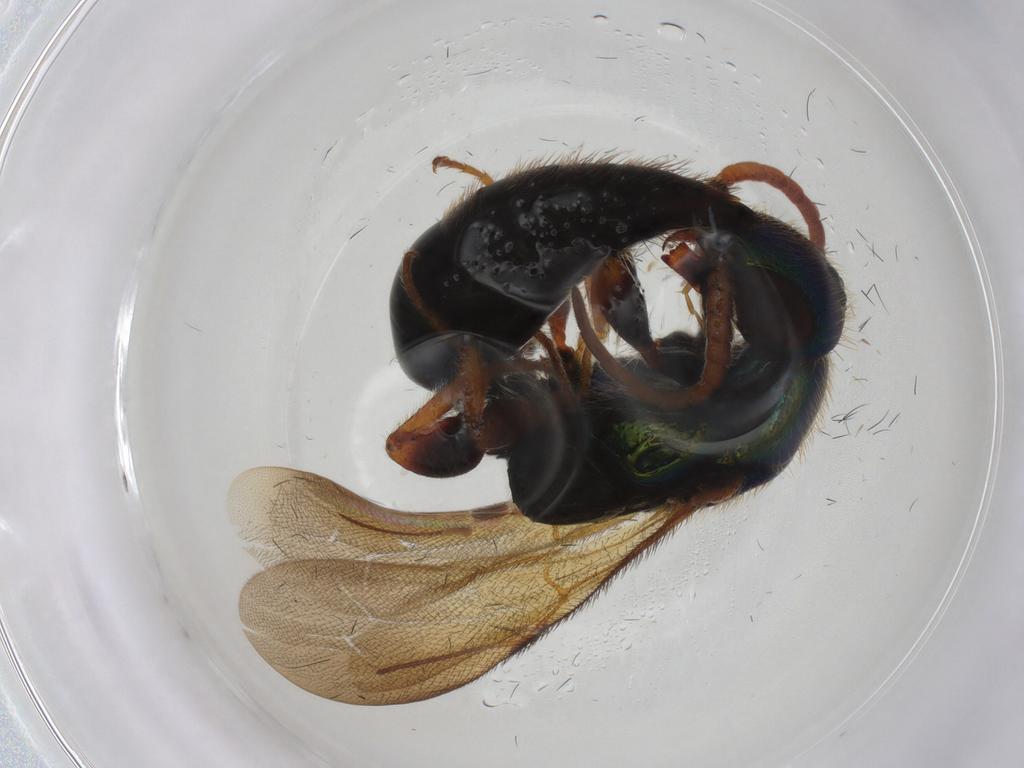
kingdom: Animalia
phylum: Arthropoda
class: Insecta
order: Hymenoptera
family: Bethylidae
